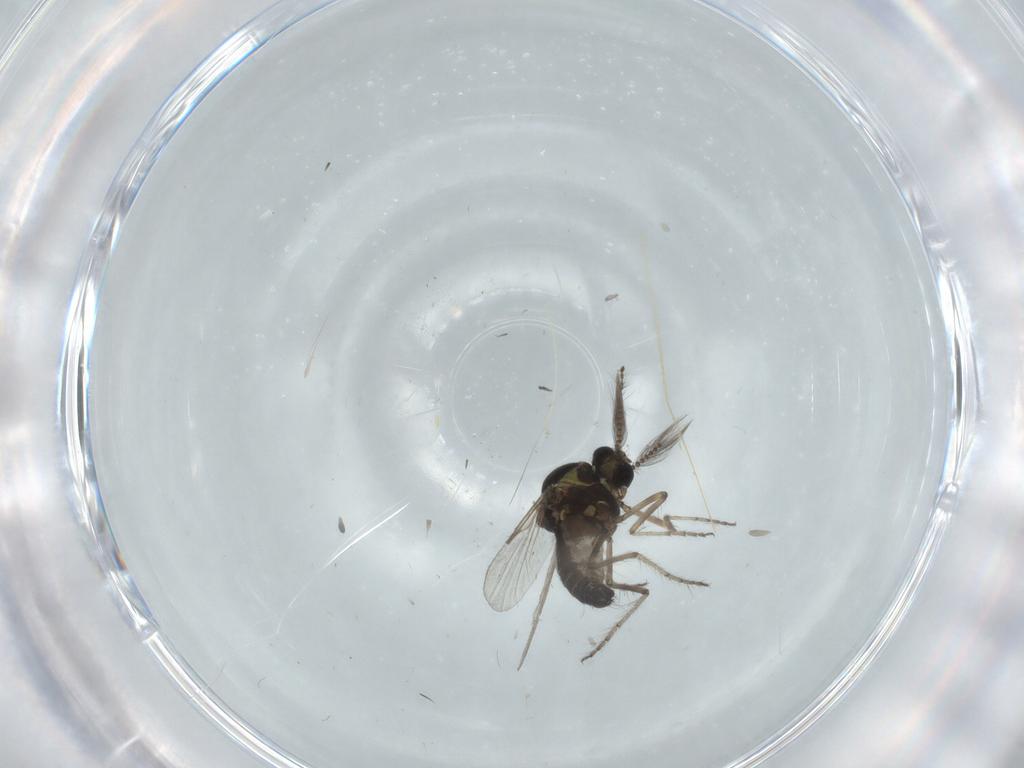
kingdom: Animalia
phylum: Arthropoda
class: Insecta
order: Diptera
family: Ceratopogonidae
